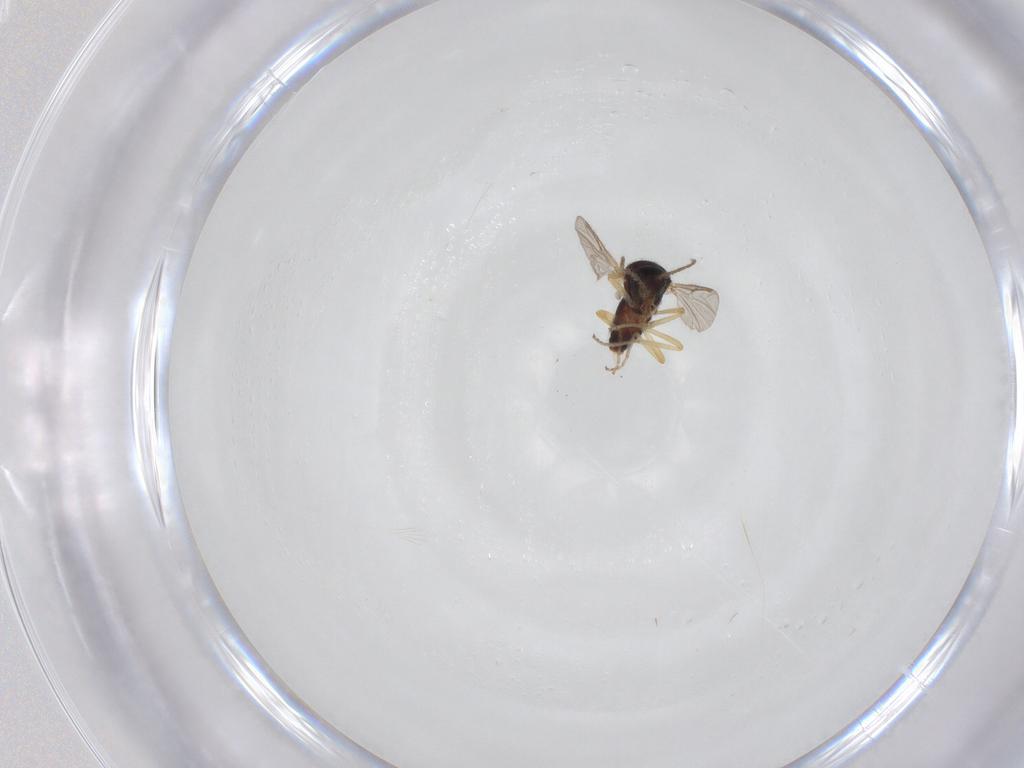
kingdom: Animalia
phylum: Arthropoda
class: Insecta
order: Diptera
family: Ceratopogonidae
